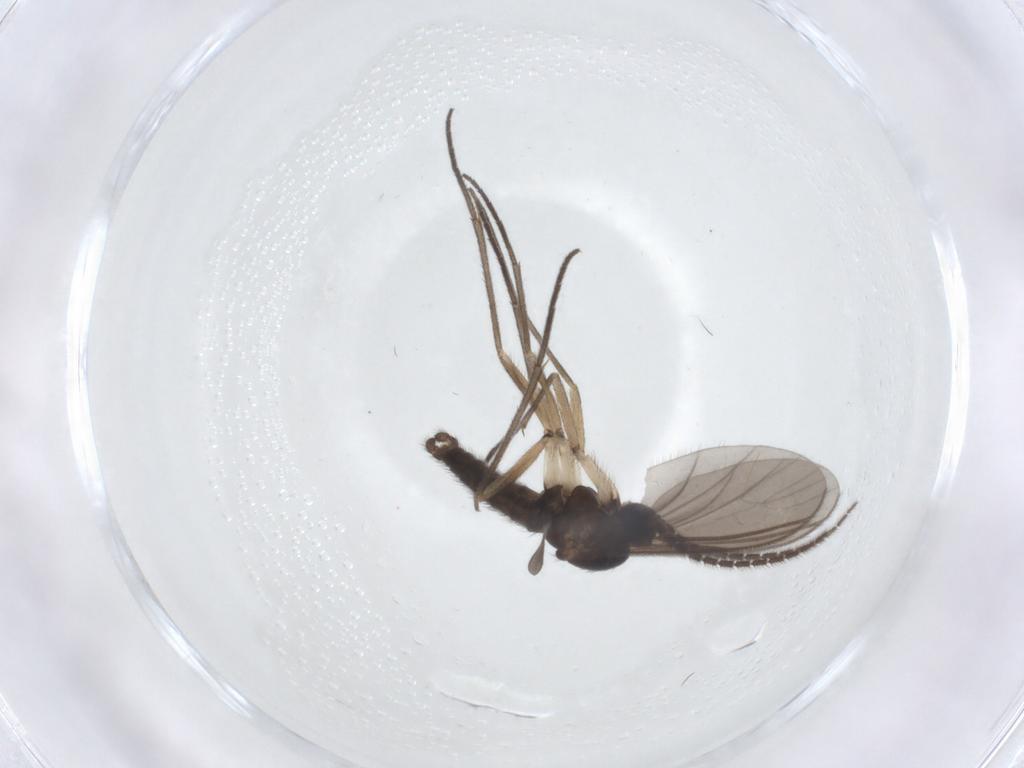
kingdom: Animalia
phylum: Arthropoda
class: Insecta
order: Diptera
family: Sciaridae
